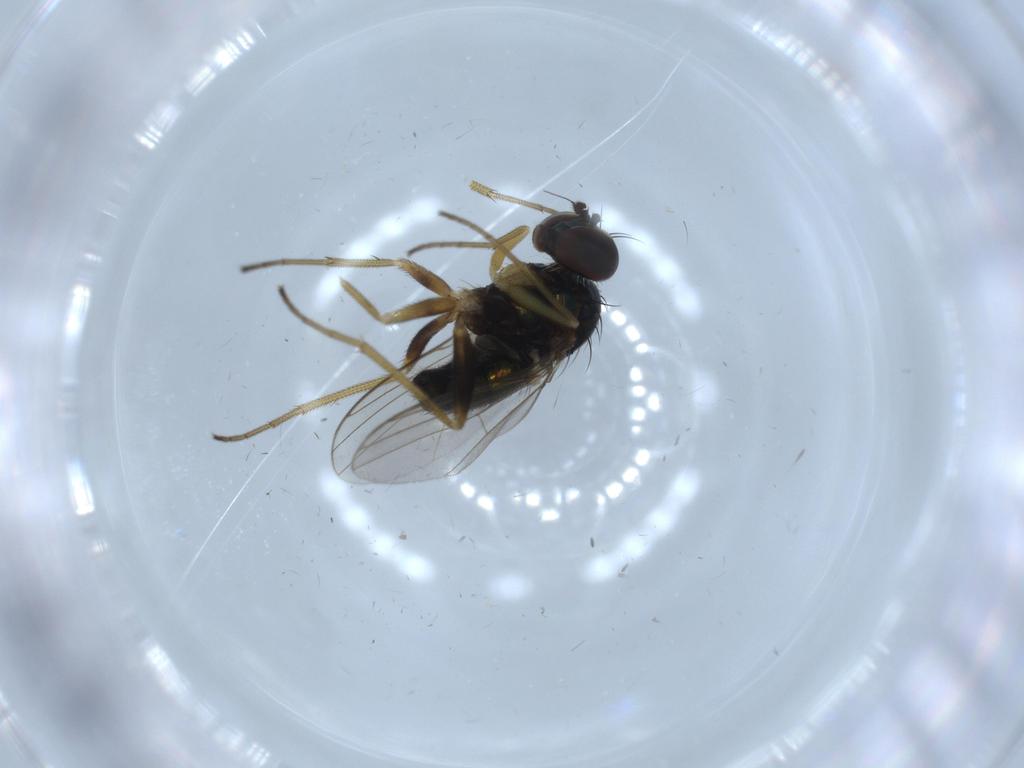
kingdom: Animalia
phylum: Arthropoda
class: Insecta
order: Diptera
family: Dolichopodidae
